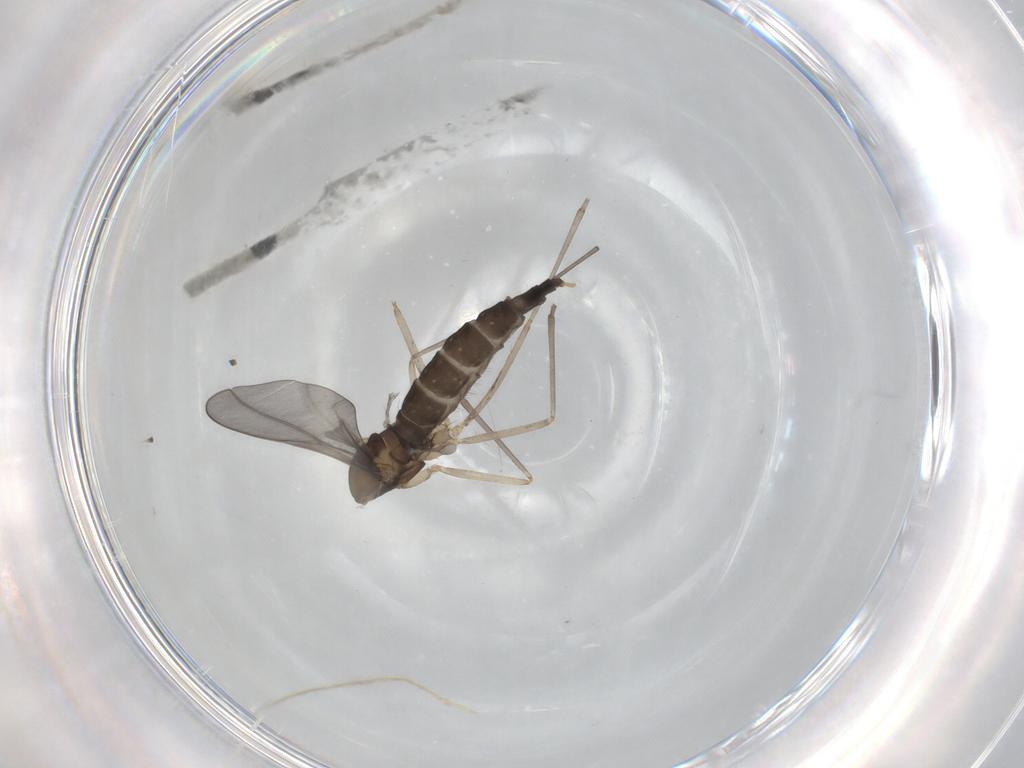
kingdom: Animalia
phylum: Arthropoda
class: Insecta
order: Diptera
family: Cecidomyiidae
